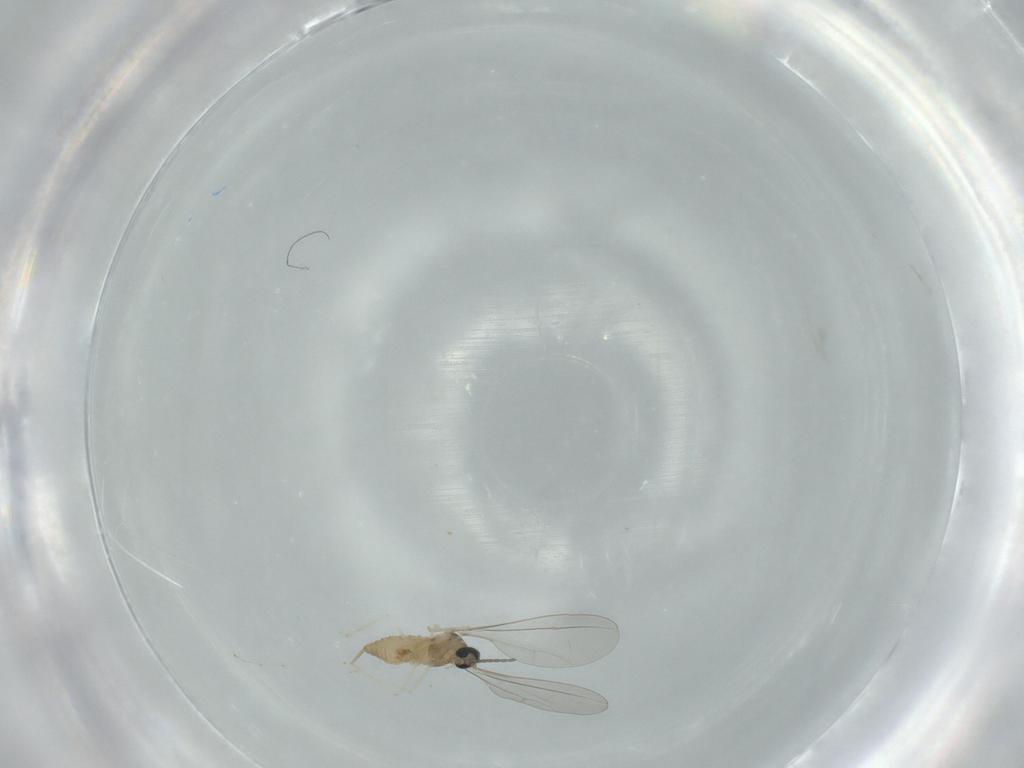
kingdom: Animalia
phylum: Arthropoda
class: Insecta
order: Diptera
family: Cecidomyiidae
